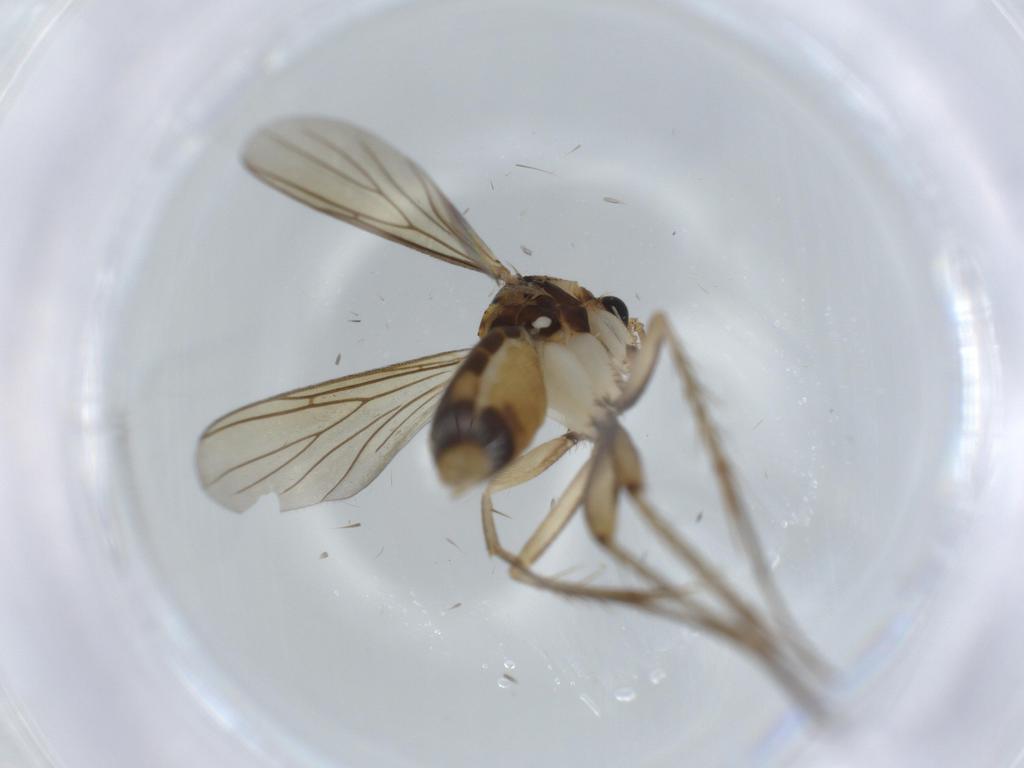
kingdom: Animalia
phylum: Arthropoda
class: Insecta
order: Diptera
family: Mycetophilidae
